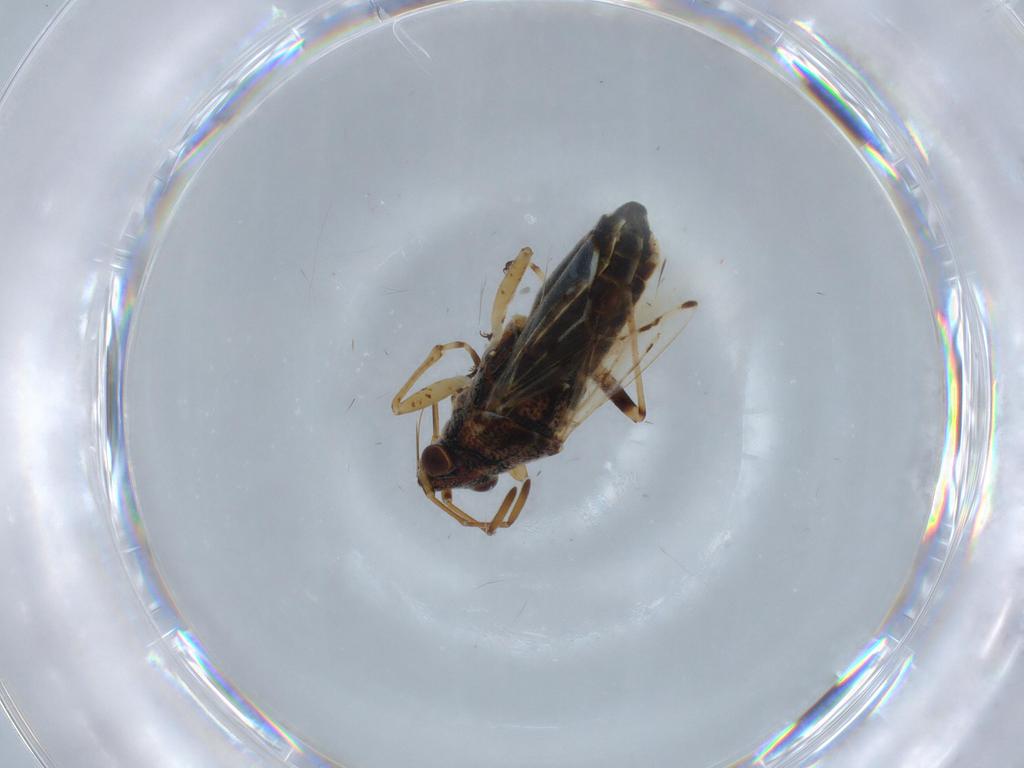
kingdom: Animalia
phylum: Arthropoda
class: Insecta
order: Hemiptera
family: Lygaeidae
